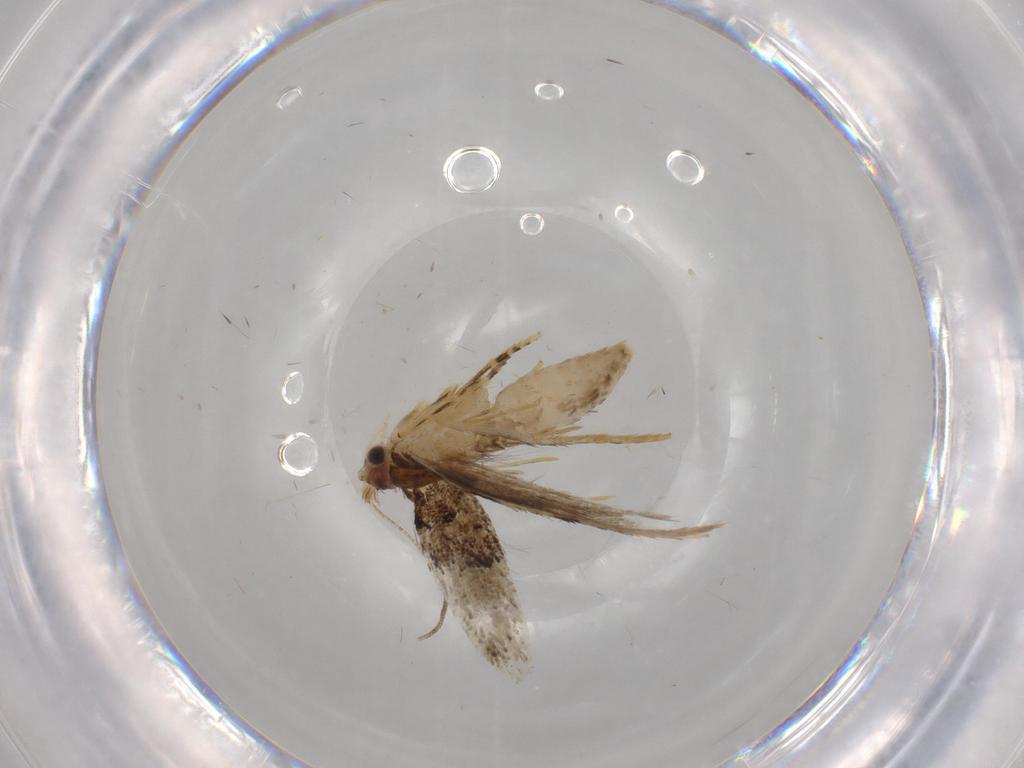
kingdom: Animalia
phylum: Arthropoda
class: Insecta
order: Lepidoptera
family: Tineidae
